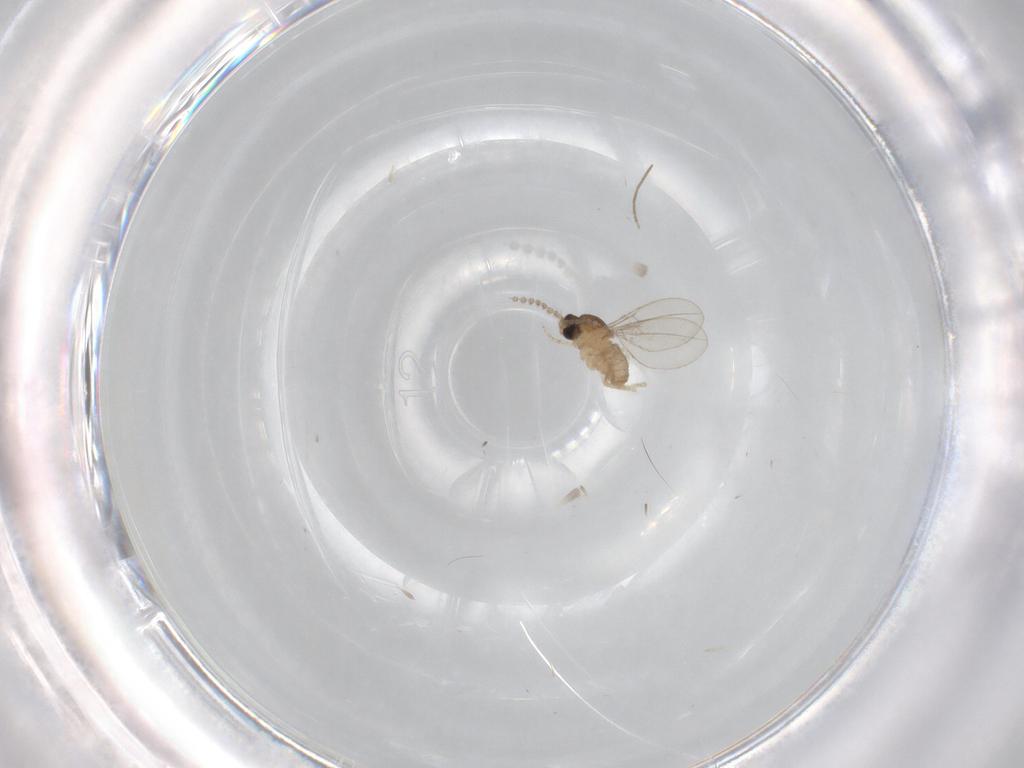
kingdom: Animalia
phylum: Arthropoda
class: Insecta
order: Diptera
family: Cecidomyiidae
